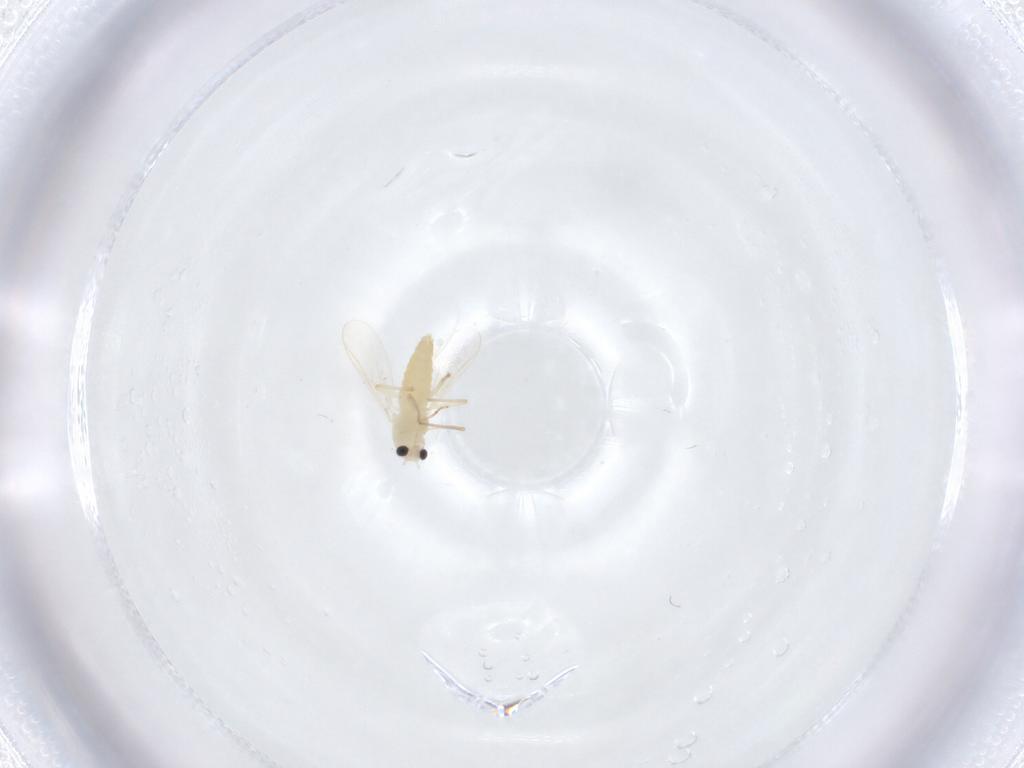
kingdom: Animalia
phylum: Arthropoda
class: Insecta
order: Diptera
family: Chironomidae
